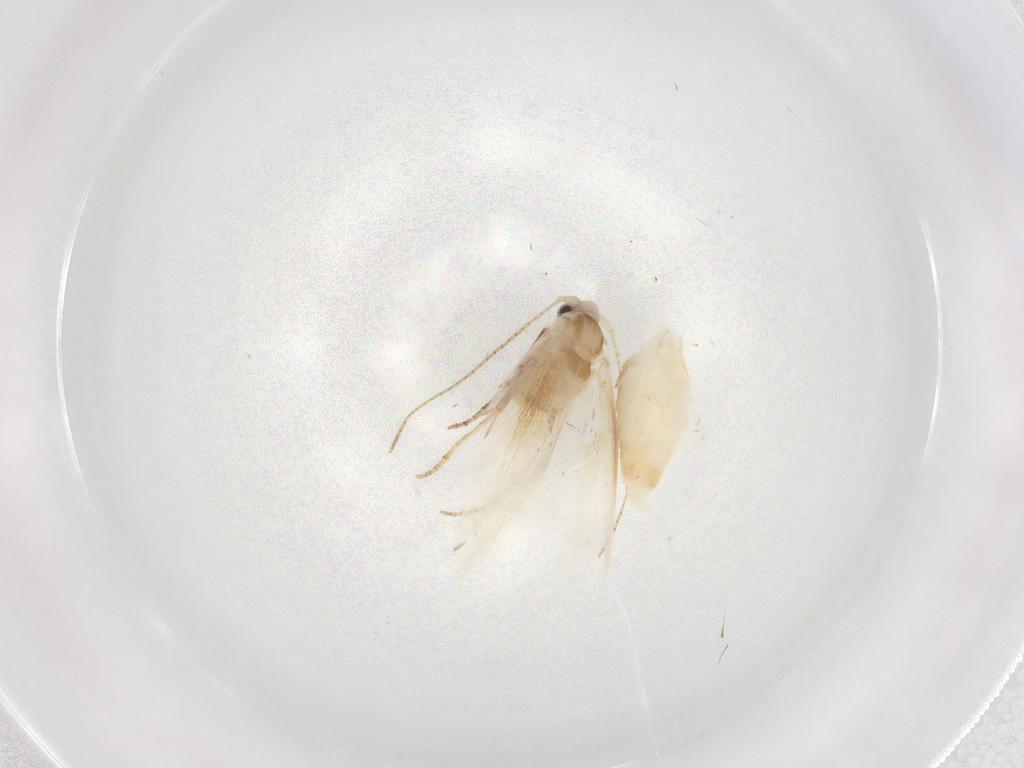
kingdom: Animalia
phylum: Arthropoda
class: Insecta
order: Lepidoptera
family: Bucculatricidae
